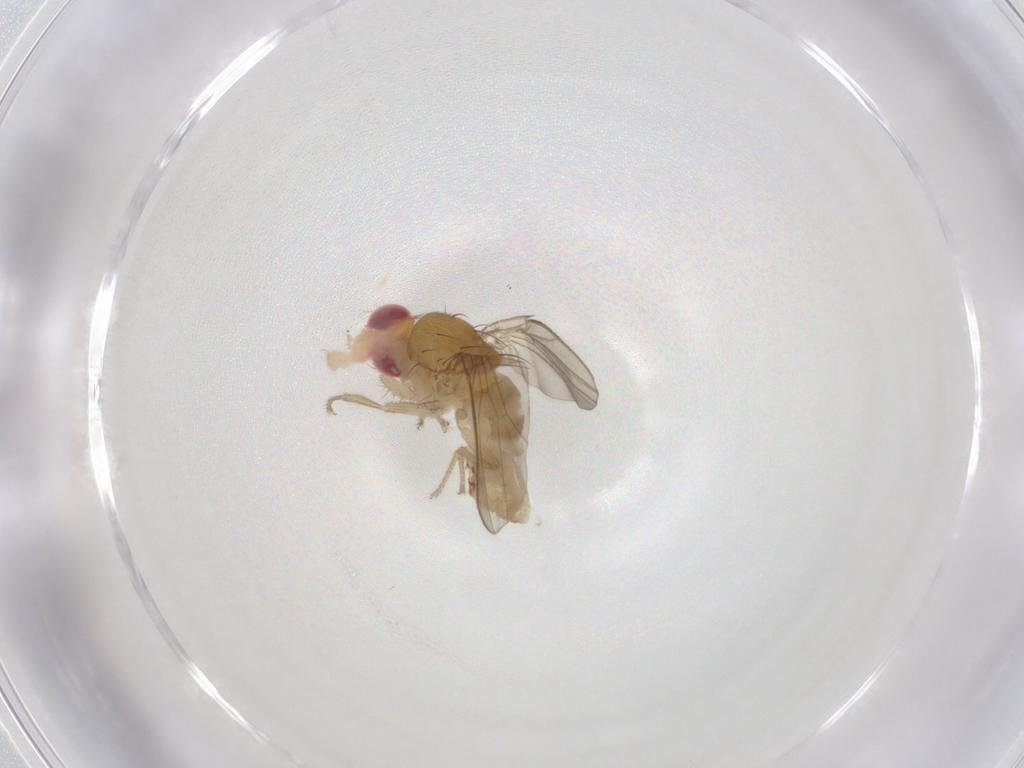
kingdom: Animalia
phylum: Arthropoda
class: Insecta
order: Diptera
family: Drosophilidae
